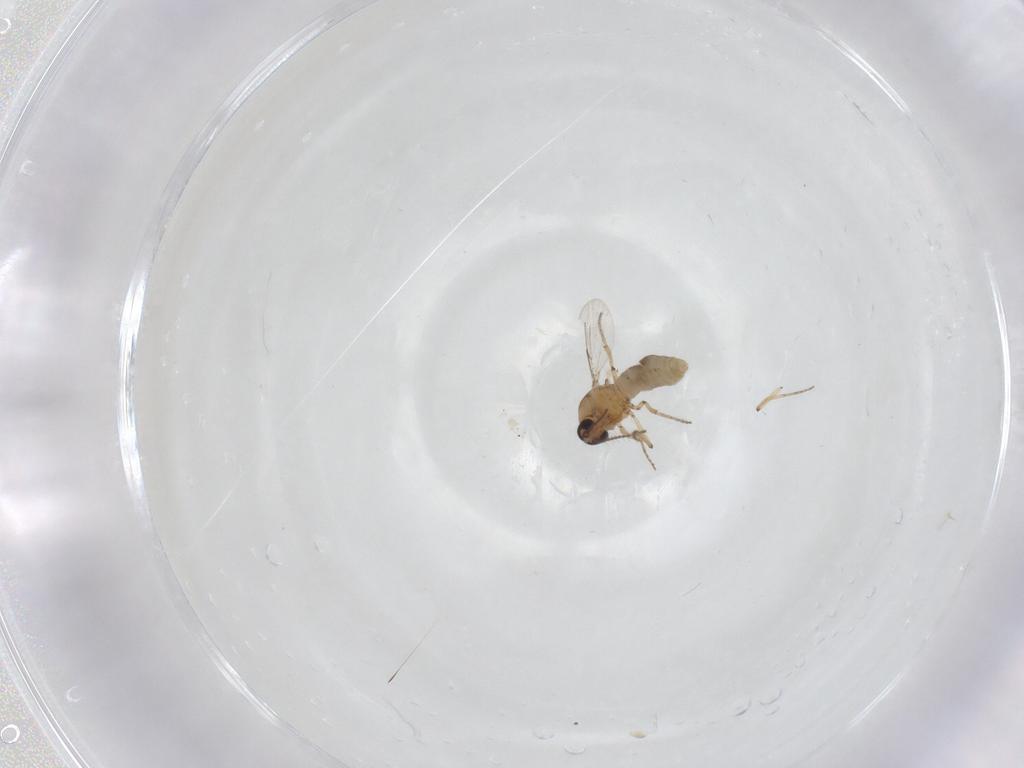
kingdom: Animalia
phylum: Arthropoda
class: Insecta
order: Diptera
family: Ceratopogonidae
